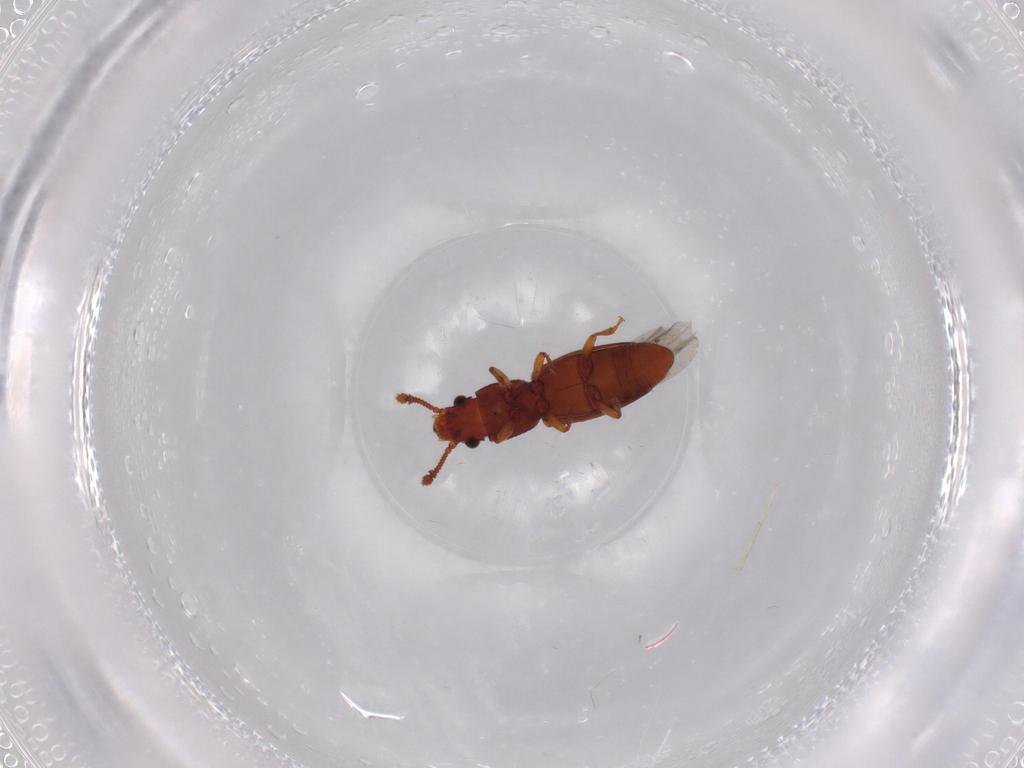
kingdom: Animalia
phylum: Arthropoda
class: Insecta
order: Coleoptera
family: Monotomidae
